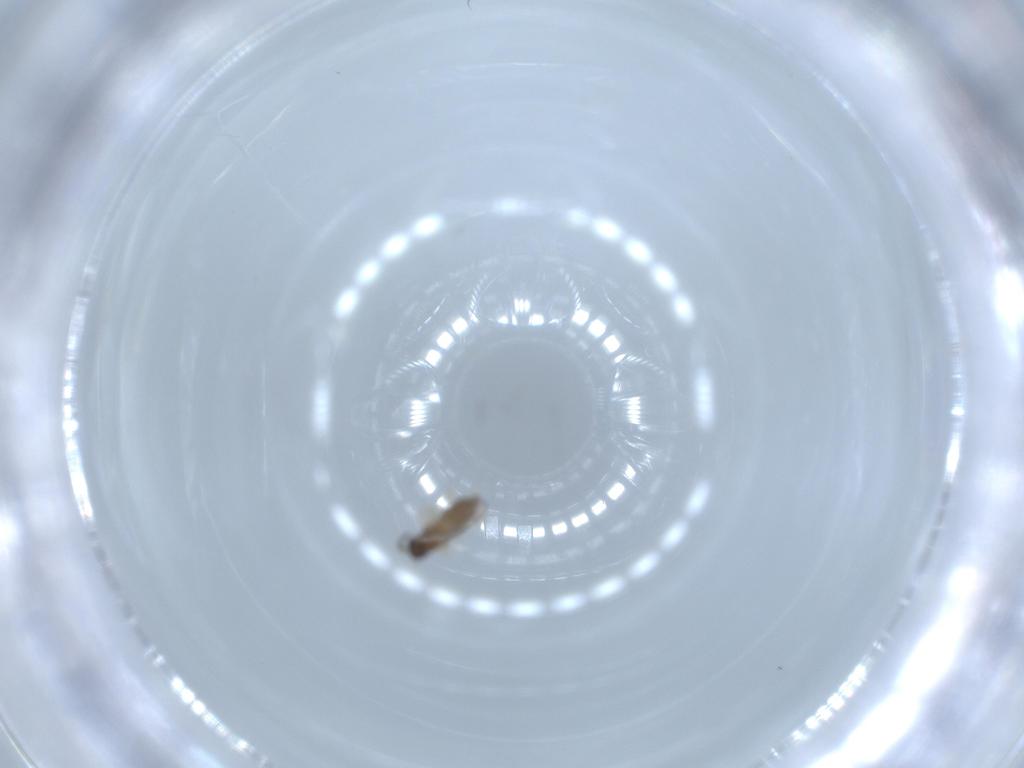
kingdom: Animalia
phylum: Arthropoda
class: Insecta
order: Diptera
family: Cecidomyiidae
